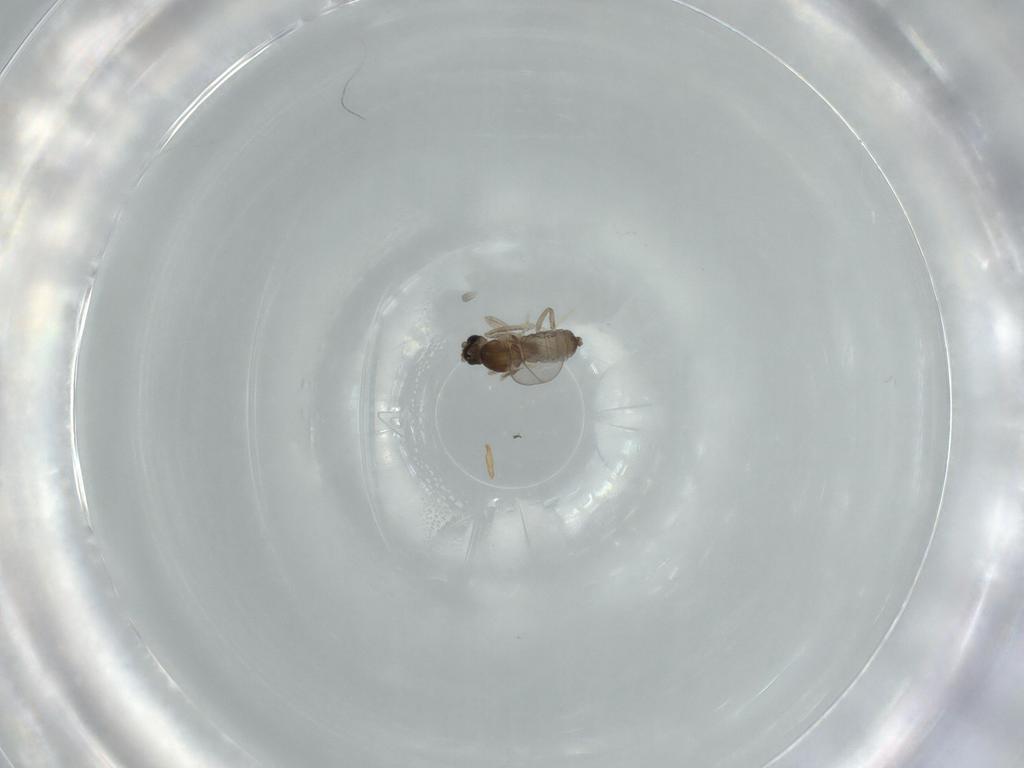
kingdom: Animalia
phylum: Arthropoda
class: Insecta
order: Diptera
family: Cecidomyiidae
